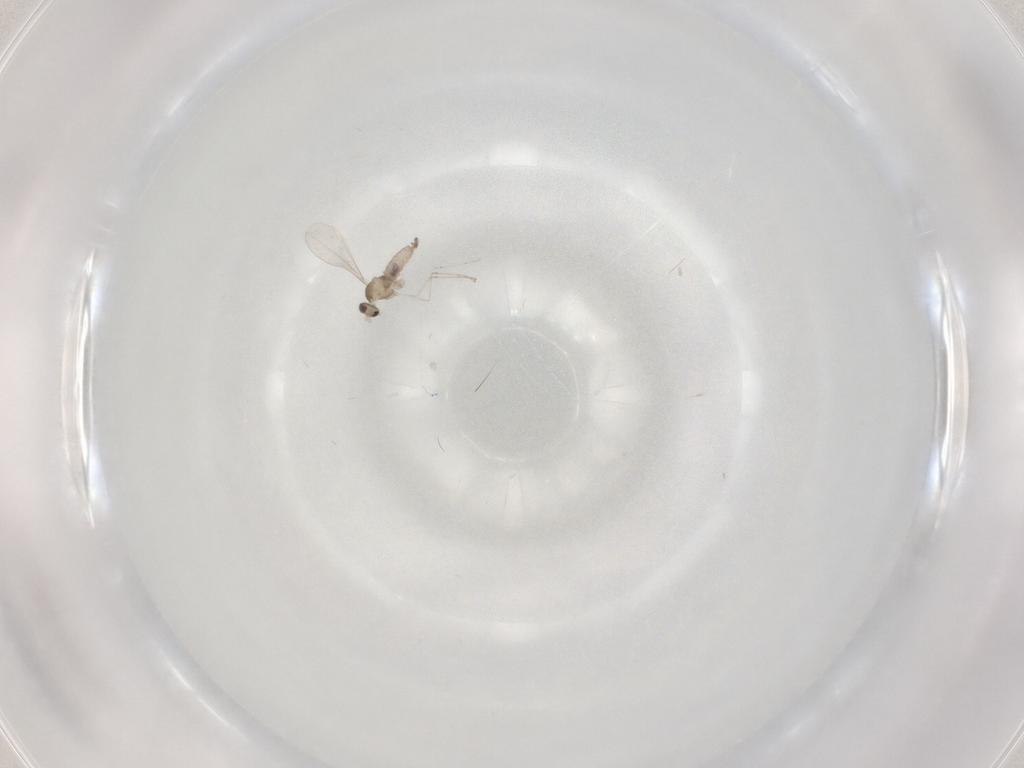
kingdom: Animalia
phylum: Arthropoda
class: Insecta
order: Diptera
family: Cecidomyiidae
